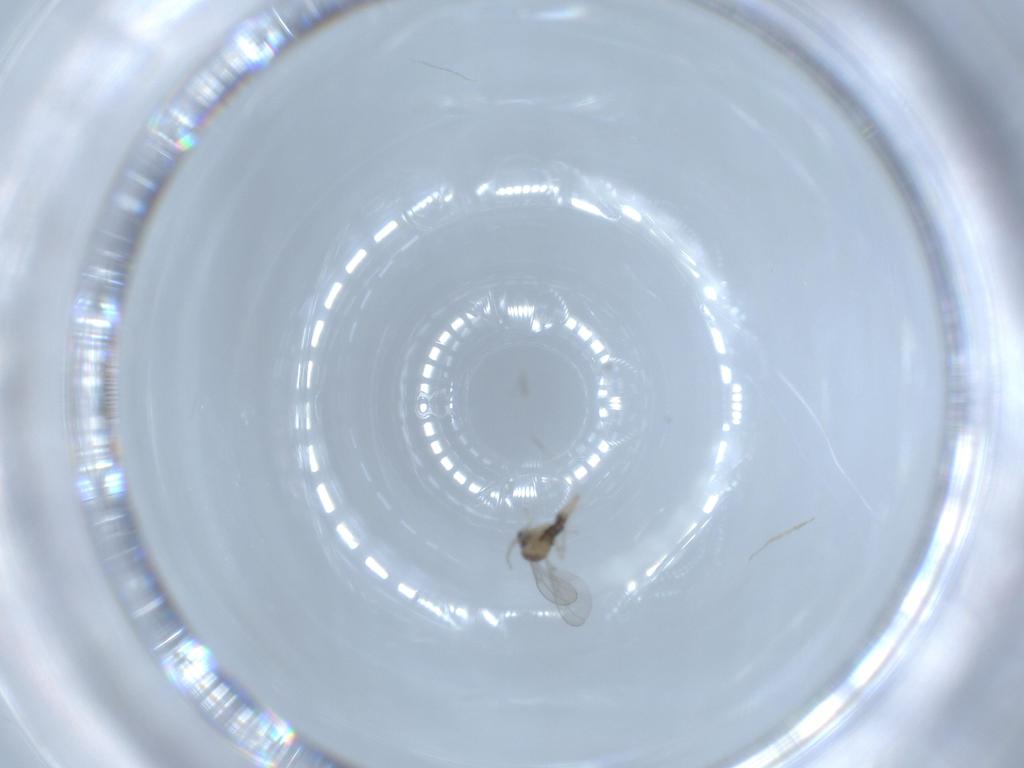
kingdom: Animalia
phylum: Arthropoda
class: Insecta
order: Diptera
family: Cecidomyiidae
